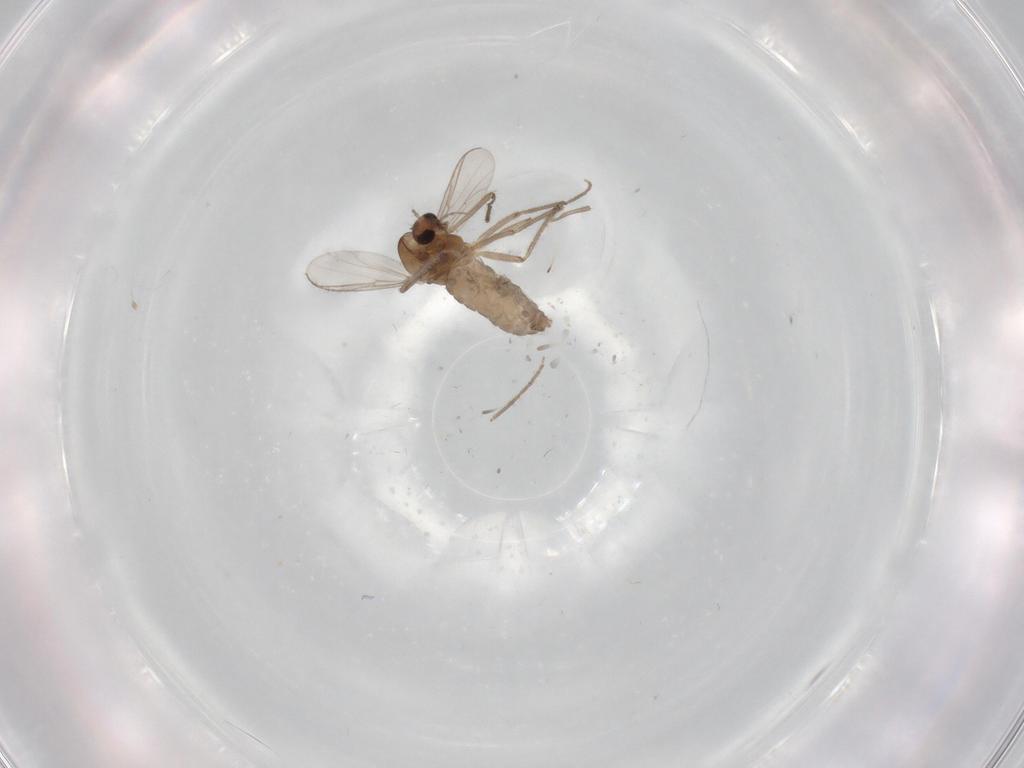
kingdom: Animalia
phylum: Arthropoda
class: Insecta
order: Diptera
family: Chironomidae
